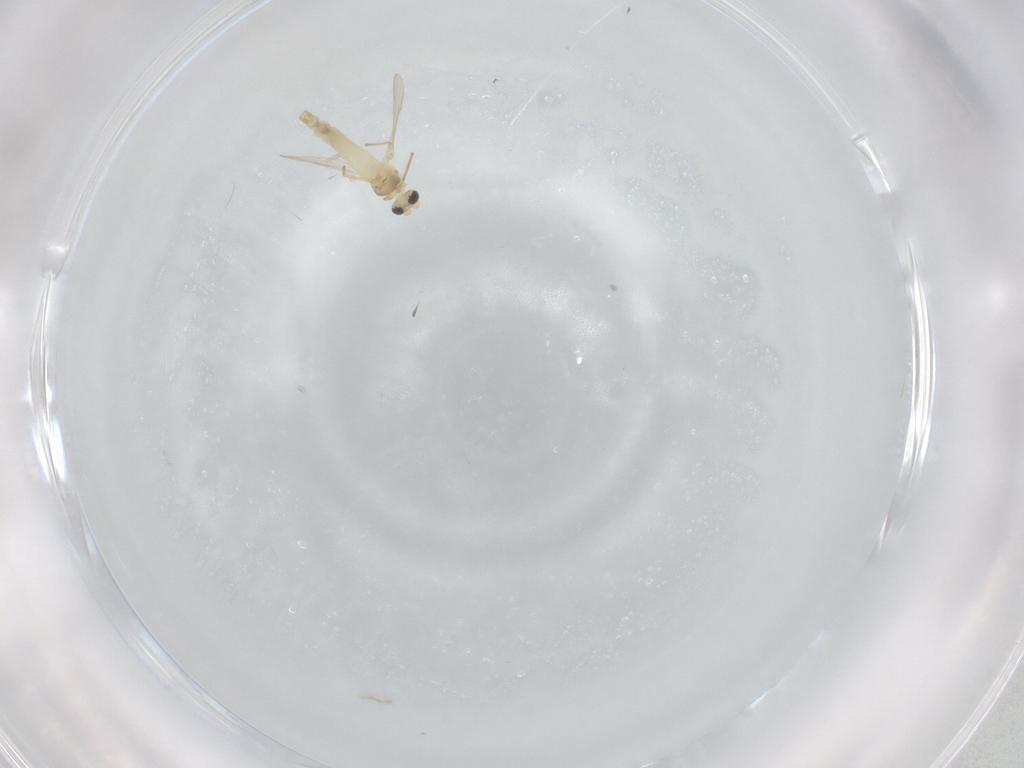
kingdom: Animalia
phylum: Arthropoda
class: Insecta
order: Diptera
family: Chironomidae
